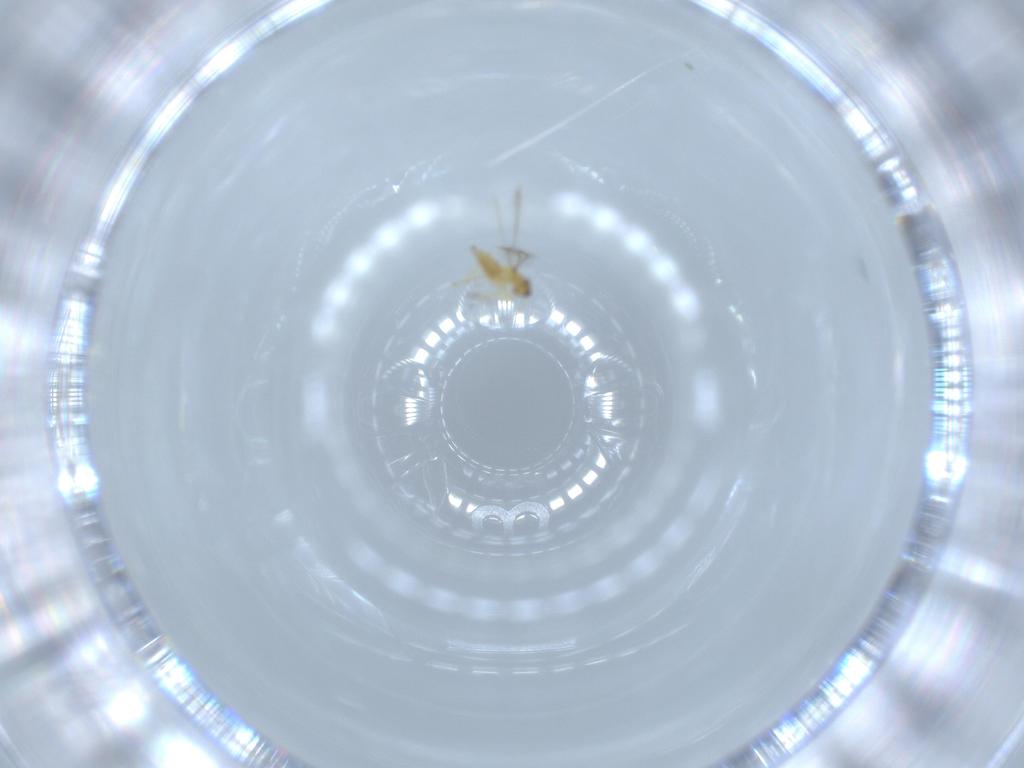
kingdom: Animalia
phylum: Arthropoda
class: Insecta
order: Hymenoptera
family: Mymaridae
